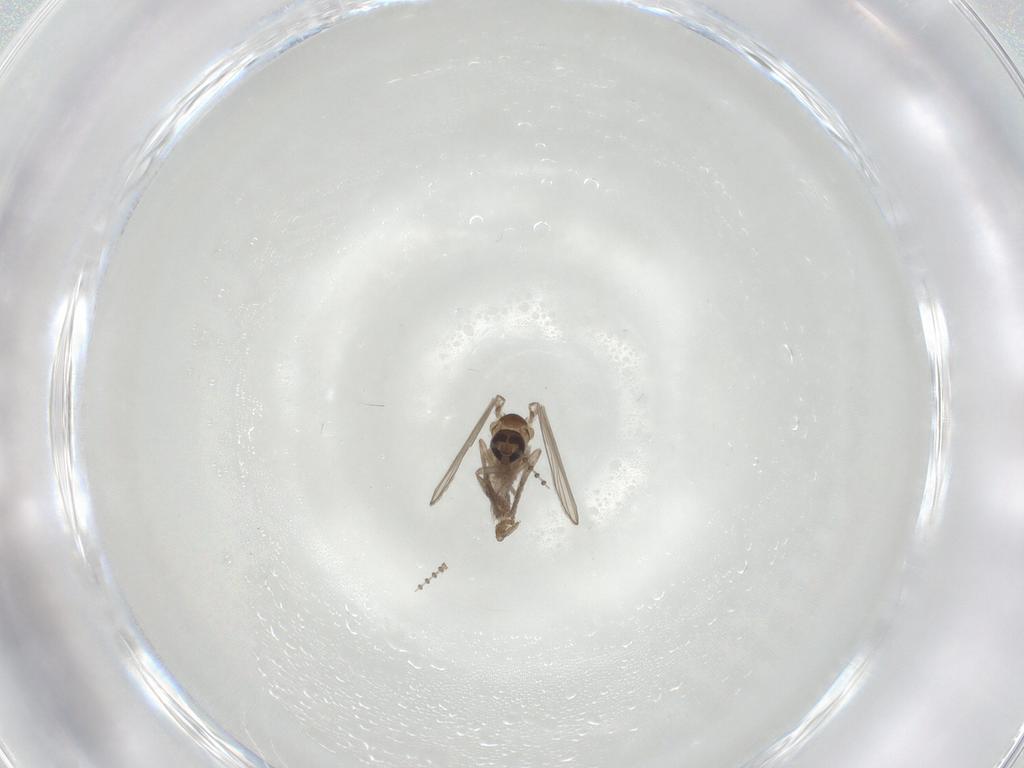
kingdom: Animalia
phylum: Arthropoda
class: Insecta
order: Diptera
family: Psychodidae
